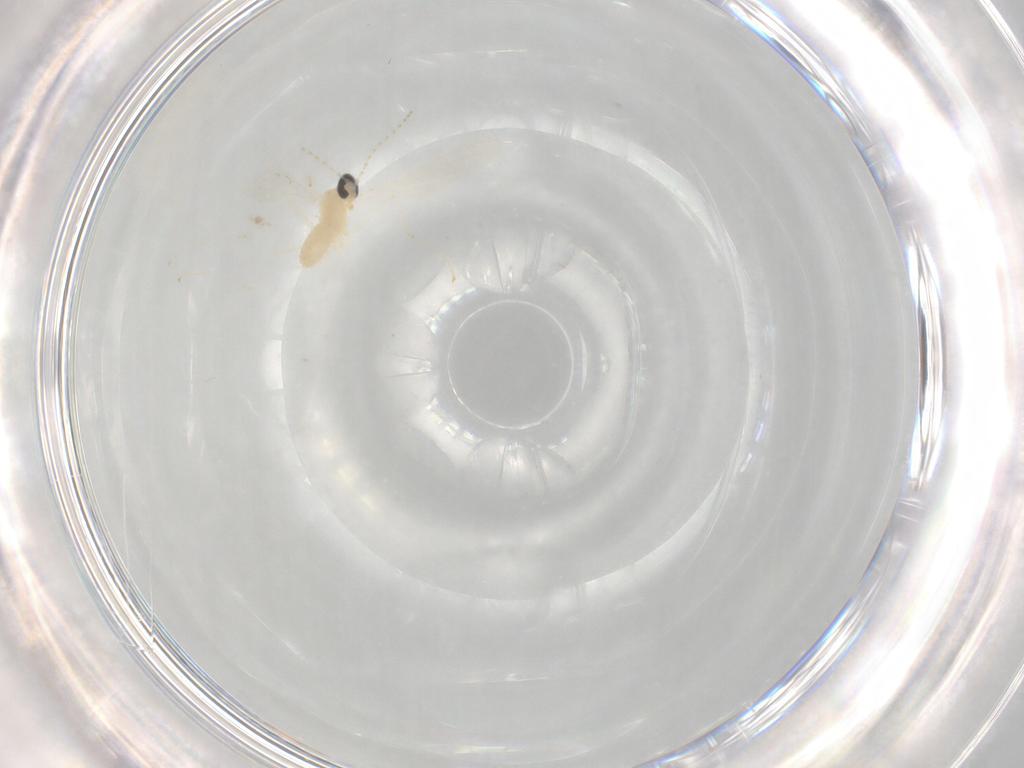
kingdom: Animalia
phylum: Arthropoda
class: Insecta
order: Diptera
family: Cecidomyiidae
